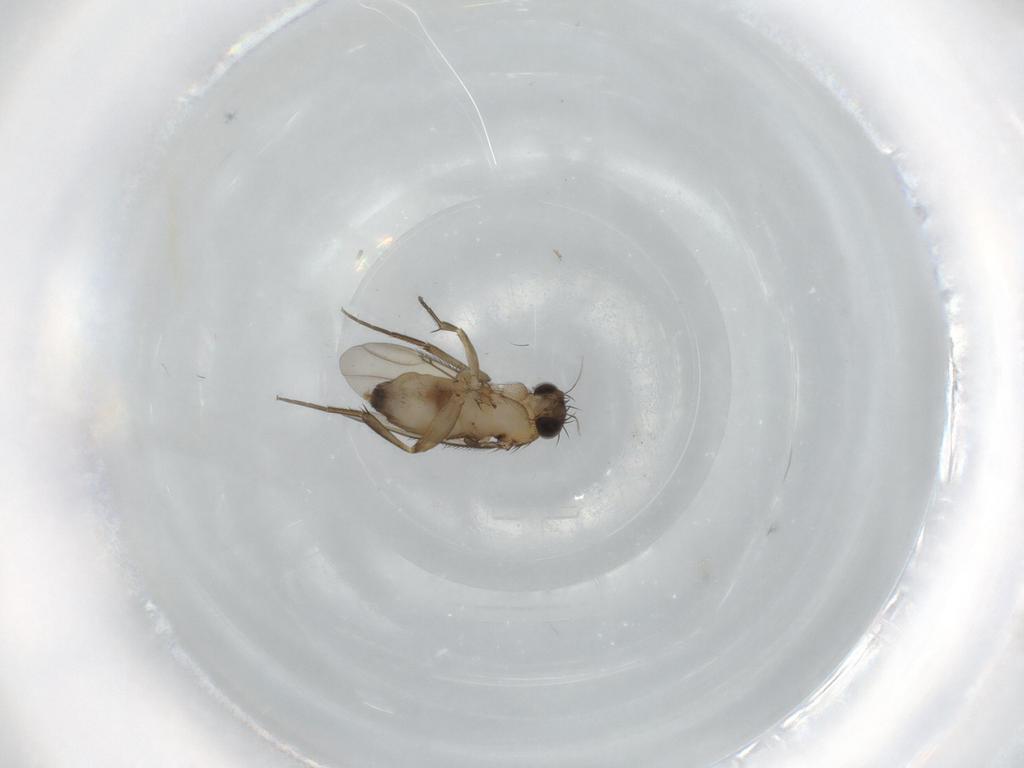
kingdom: Animalia
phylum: Arthropoda
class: Insecta
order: Diptera
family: Phoridae
